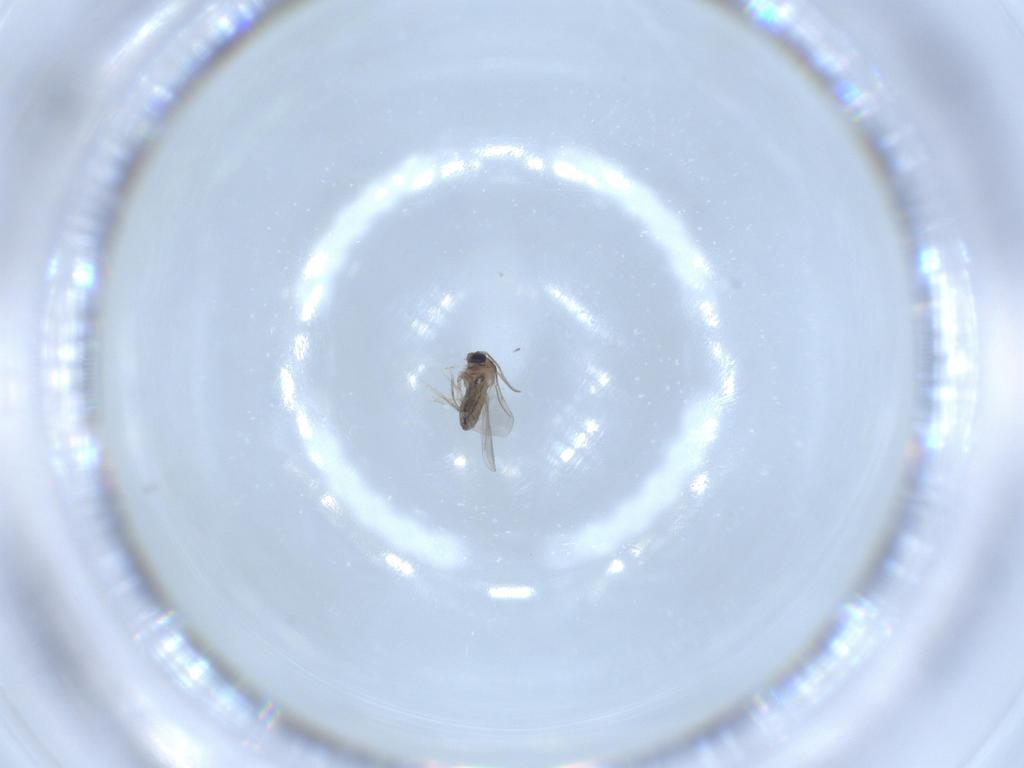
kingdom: Animalia
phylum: Arthropoda
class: Insecta
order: Diptera
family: Cecidomyiidae
